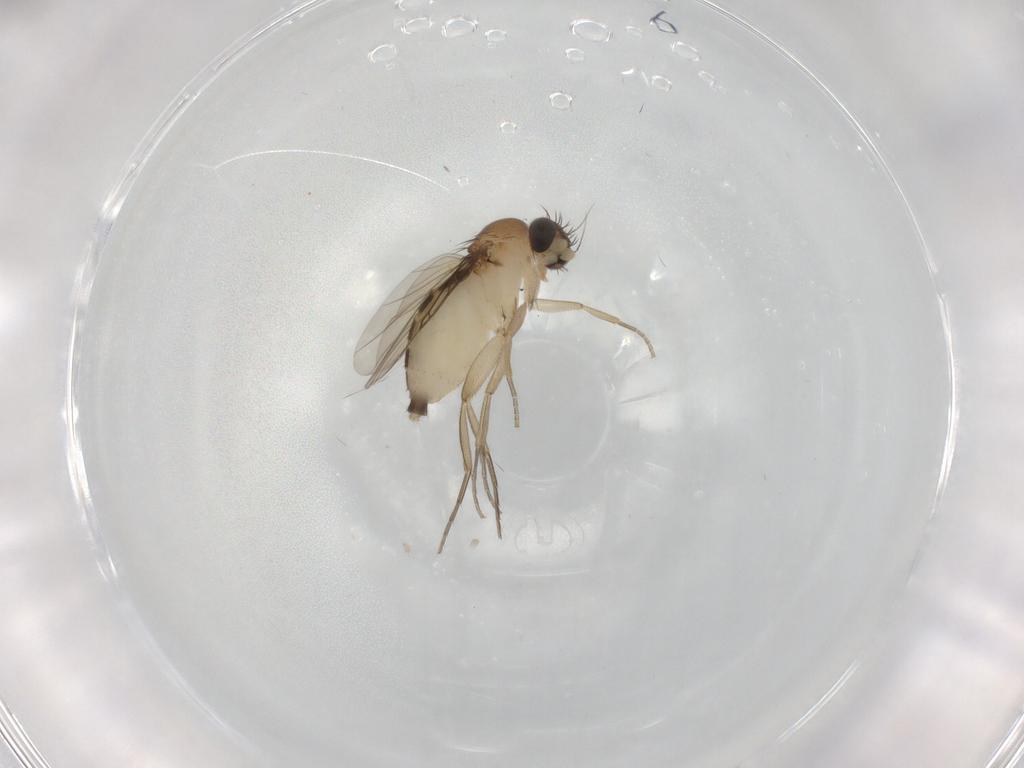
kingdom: Animalia
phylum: Arthropoda
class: Insecta
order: Diptera
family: Phoridae
